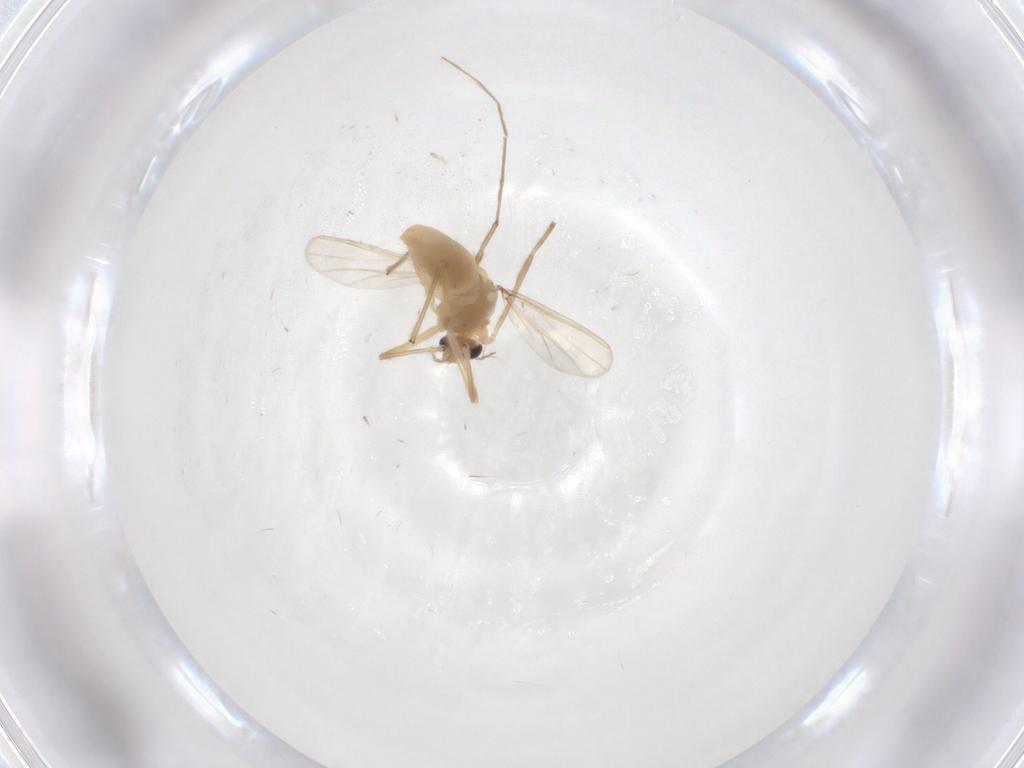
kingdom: Animalia
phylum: Arthropoda
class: Insecta
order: Diptera
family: Chironomidae
